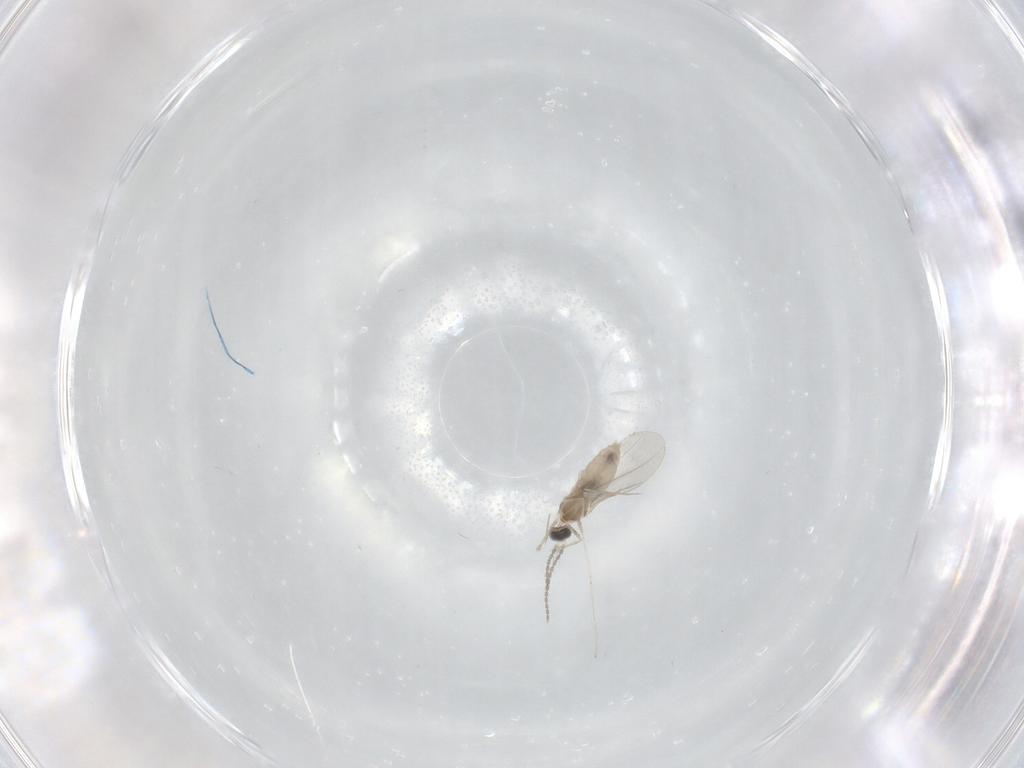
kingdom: Animalia
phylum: Arthropoda
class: Insecta
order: Diptera
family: Cecidomyiidae
